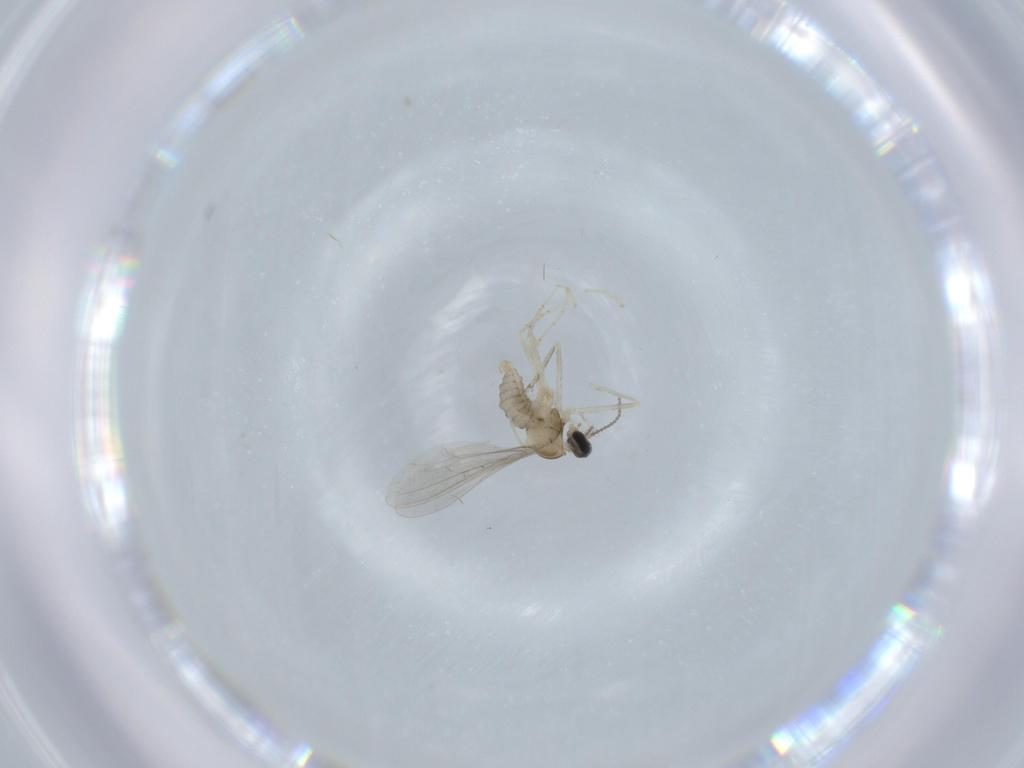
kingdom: Animalia
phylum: Arthropoda
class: Insecta
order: Diptera
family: Cecidomyiidae
